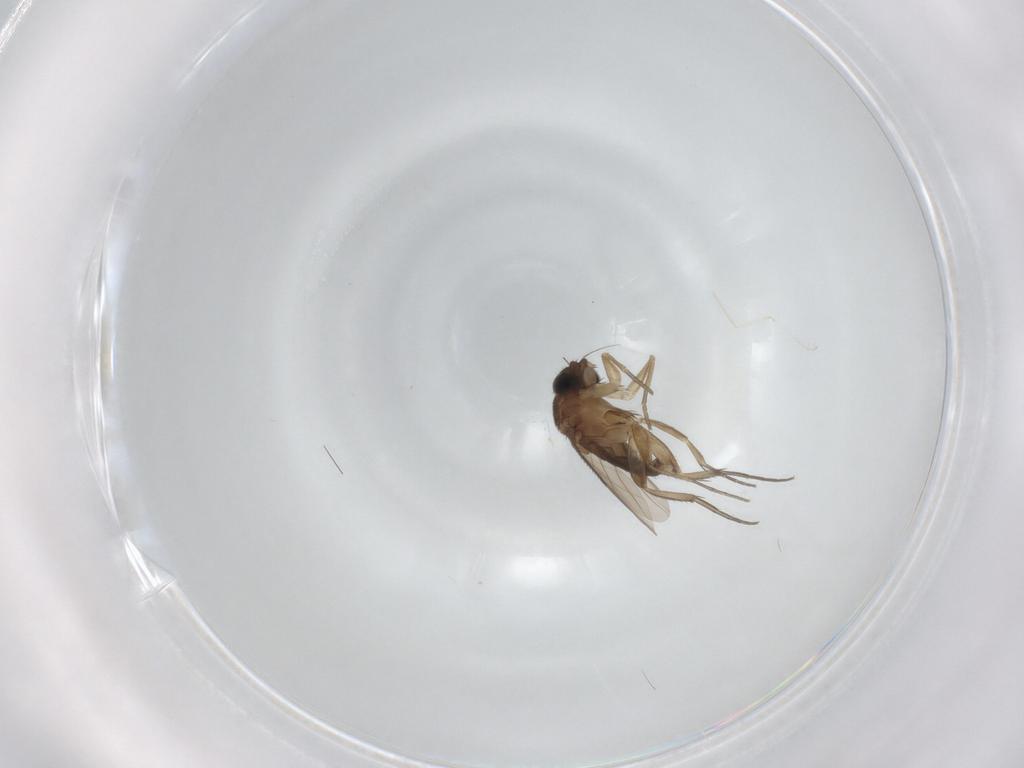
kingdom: Animalia
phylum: Arthropoda
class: Insecta
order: Diptera
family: Phoridae
